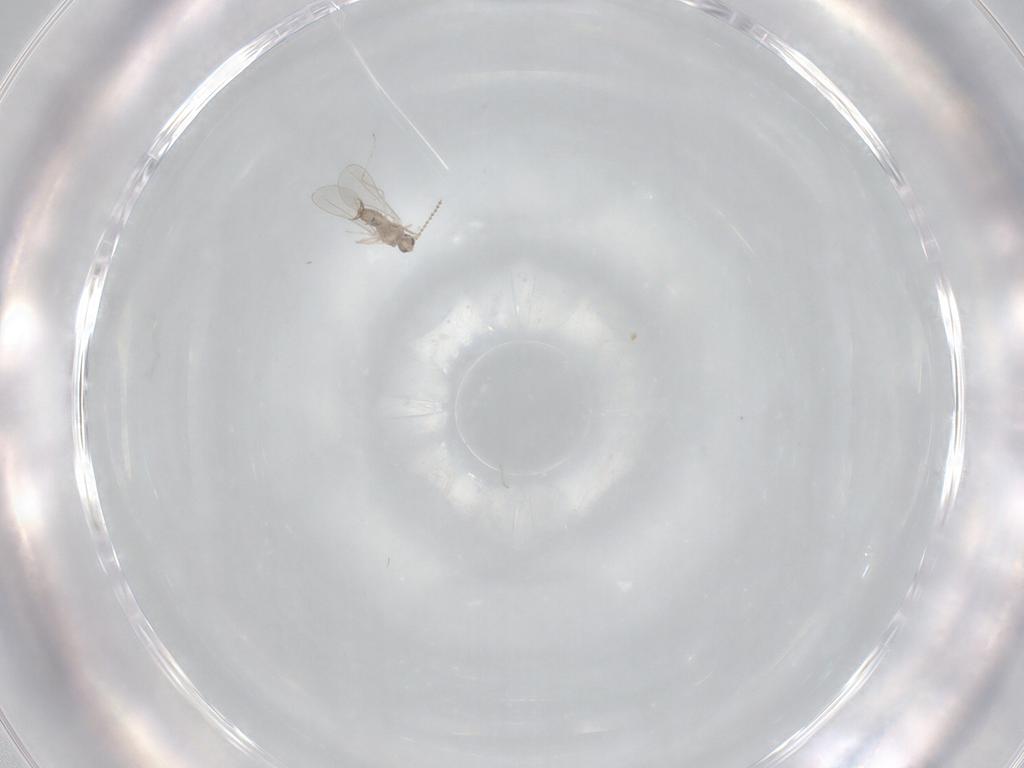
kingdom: Animalia
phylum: Arthropoda
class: Insecta
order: Diptera
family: Cecidomyiidae
